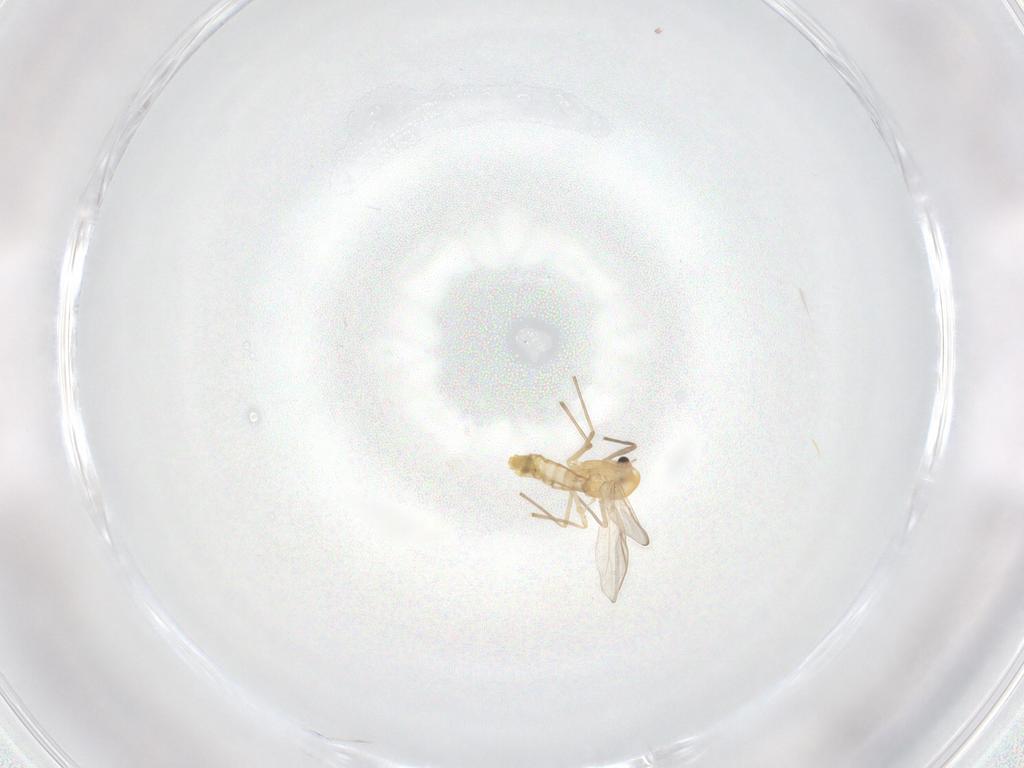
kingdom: Animalia
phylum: Arthropoda
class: Insecta
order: Diptera
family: Chironomidae
